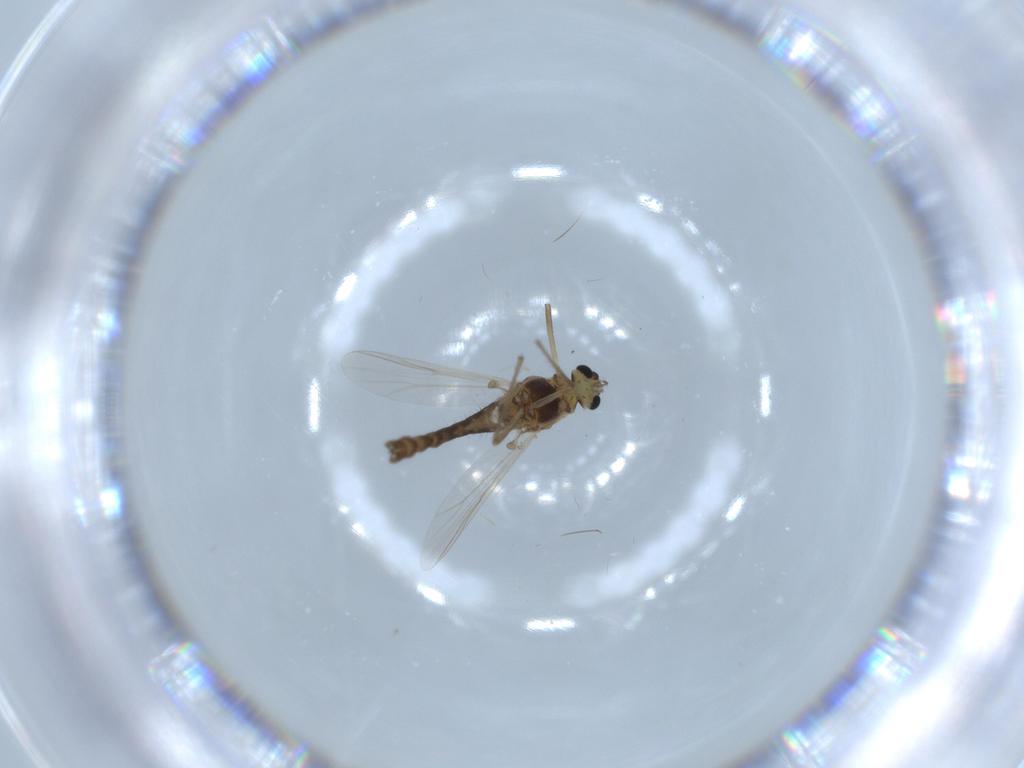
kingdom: Animalia
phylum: Arthropoda
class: Insecta
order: Diptera
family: Chironomidae
